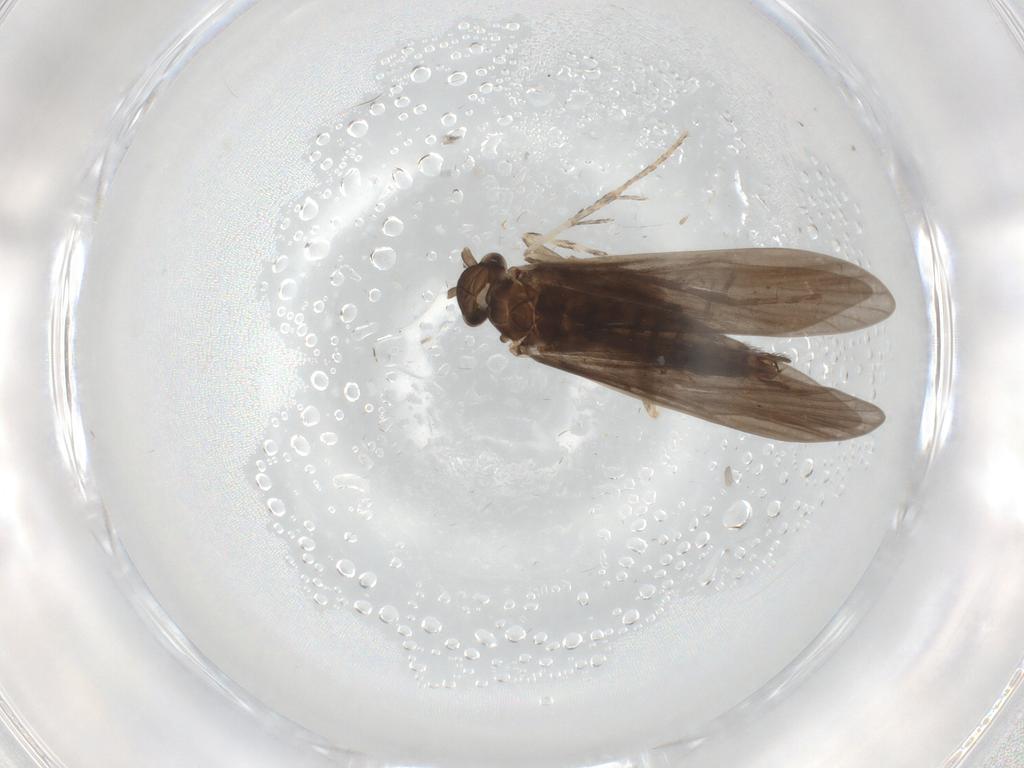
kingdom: Animalia
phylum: Arthropoda
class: Insecta
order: Trichoptera
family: Xiphocentronidae
